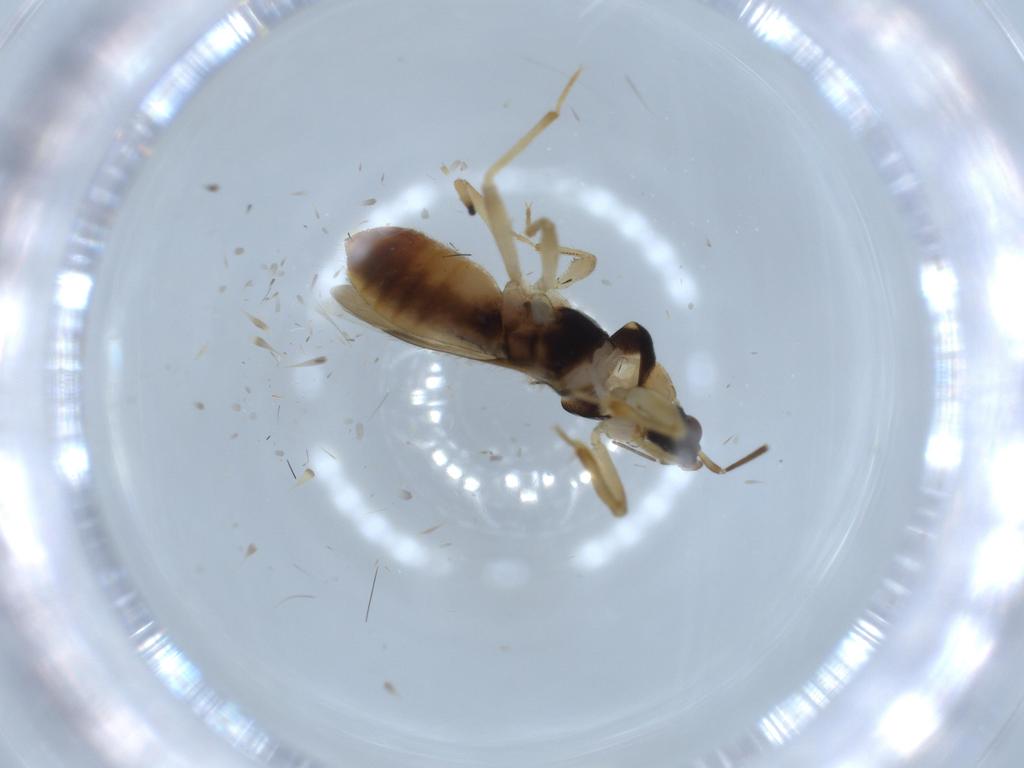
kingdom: Animalia
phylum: Arthropoda
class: Insecta
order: Hemiptera
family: Nabidae
